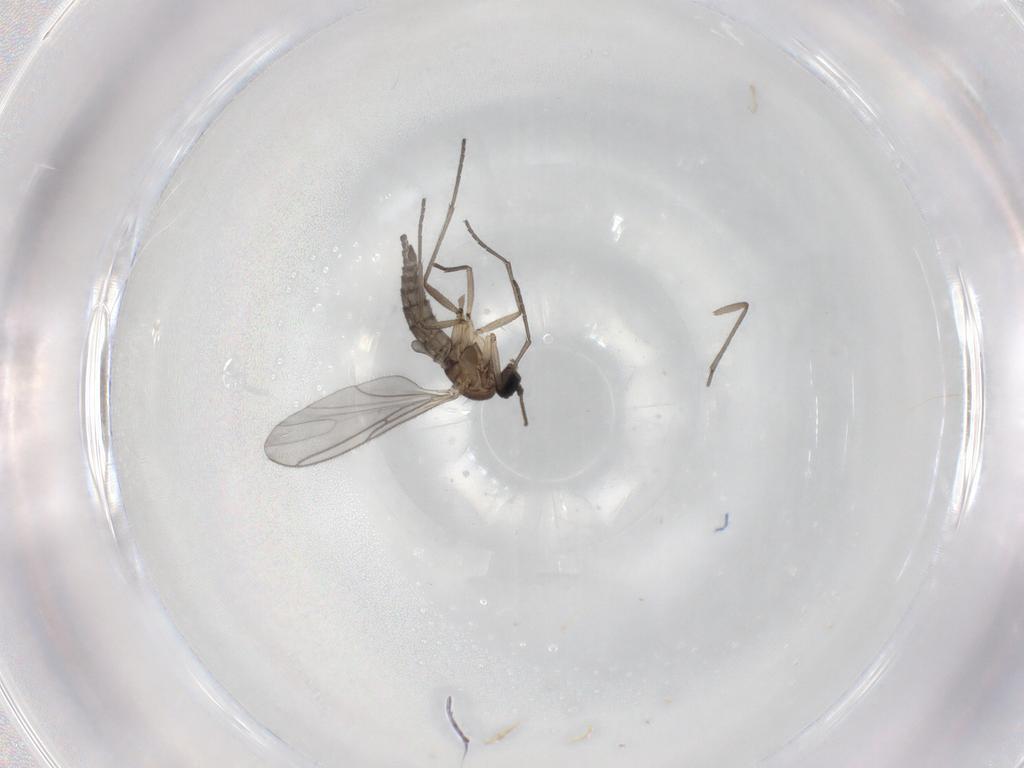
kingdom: Animalia
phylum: Arthropoda
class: Insecta
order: Diptera
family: Sciaridae
